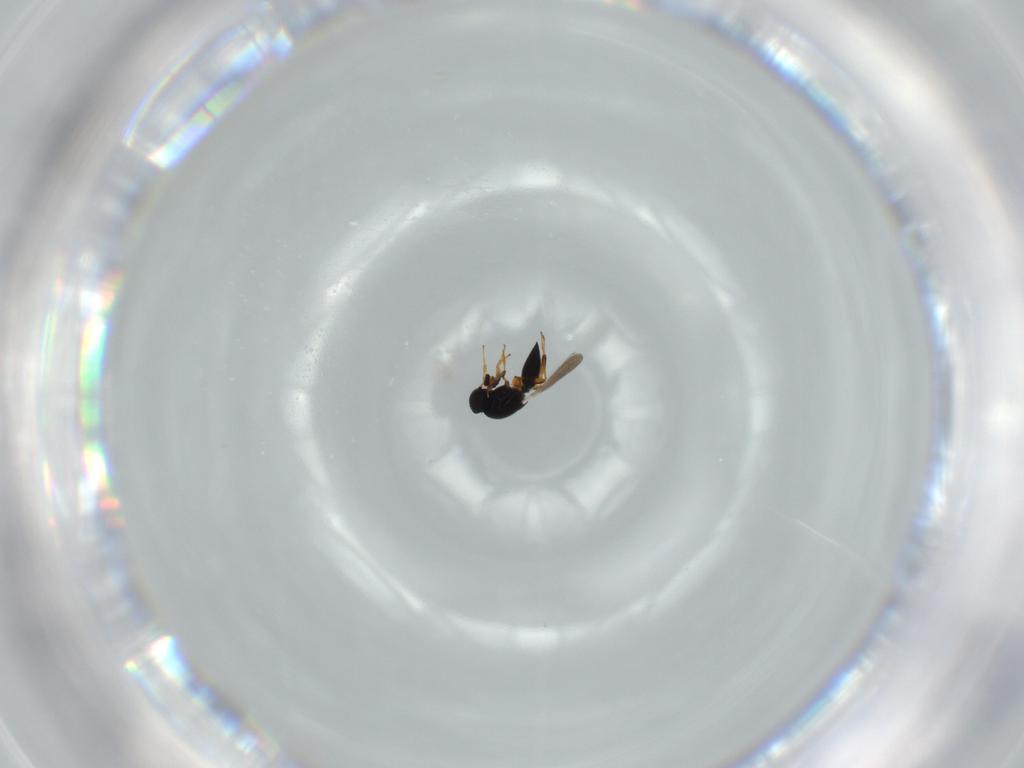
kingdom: Animalia
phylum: Arthropoda
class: Insecta
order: Hymenoptera
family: Platygastridae
